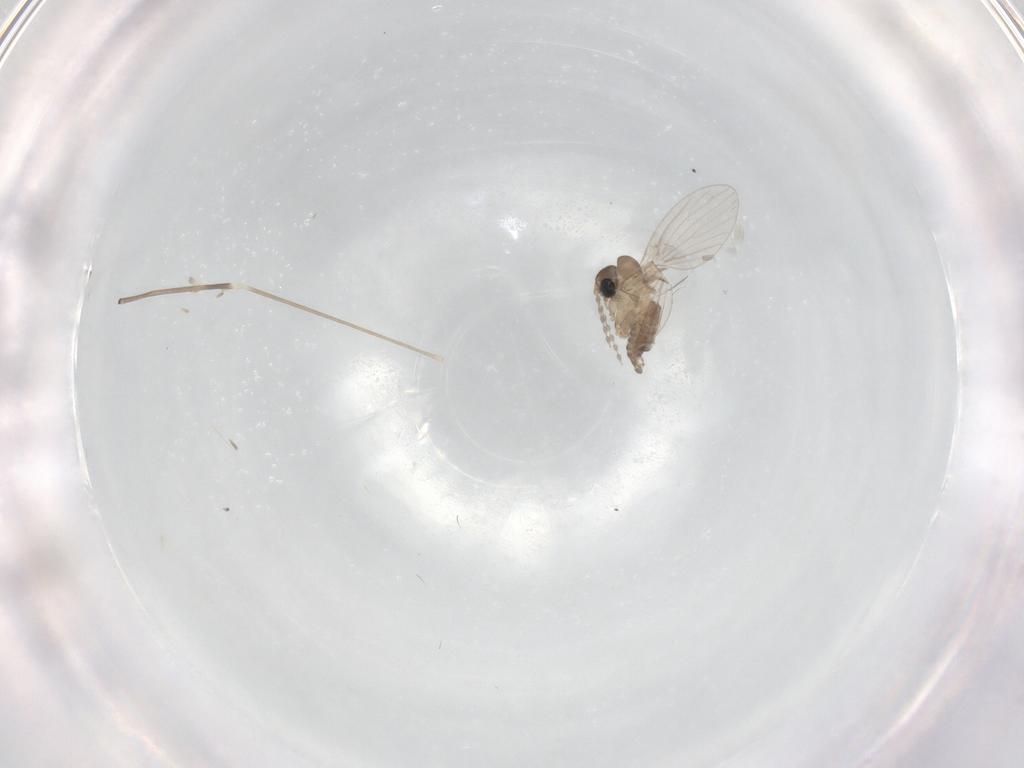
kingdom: Animalia
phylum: Arthropoda
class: Insecta
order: Diptera
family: Limoniidae
